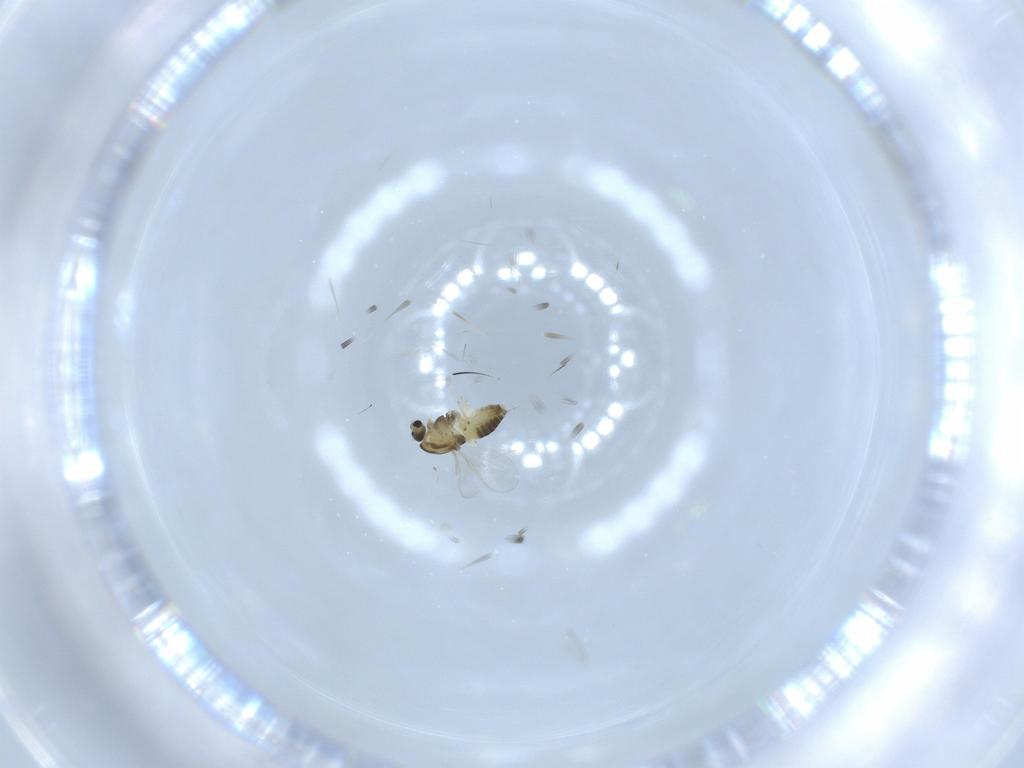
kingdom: Animalia
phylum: Arthropoda
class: Insecta
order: Diptera
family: Chironomidae
